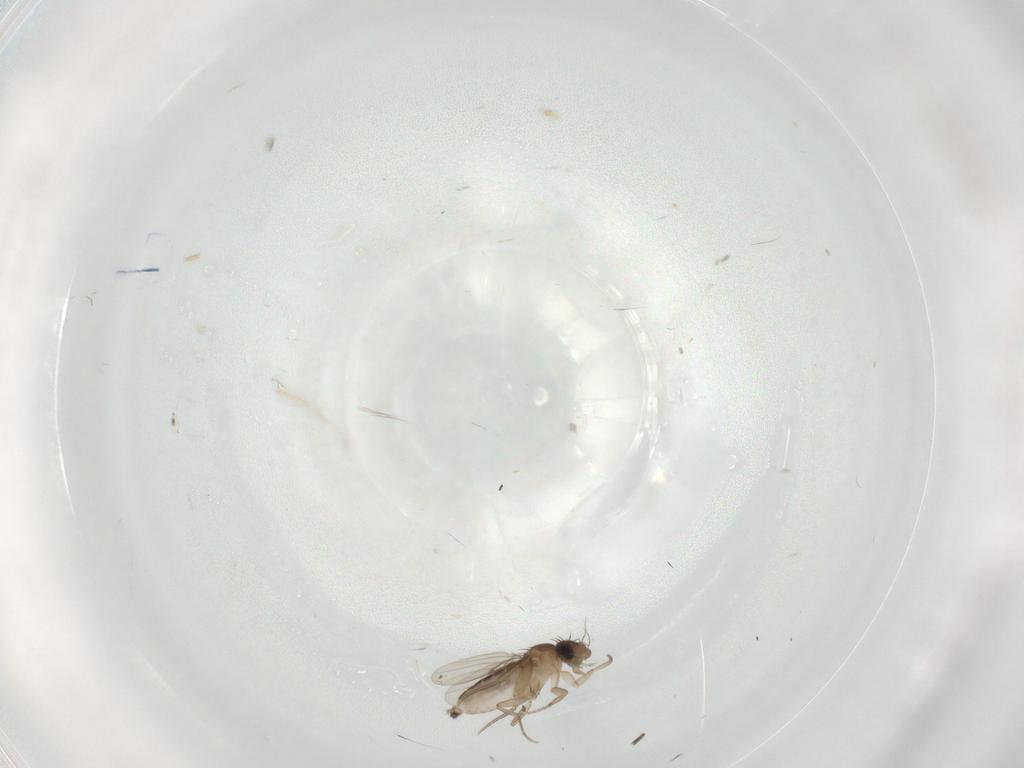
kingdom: Animalia
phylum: Arthropoda
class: Insecta
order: Diptera
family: Phoridae
